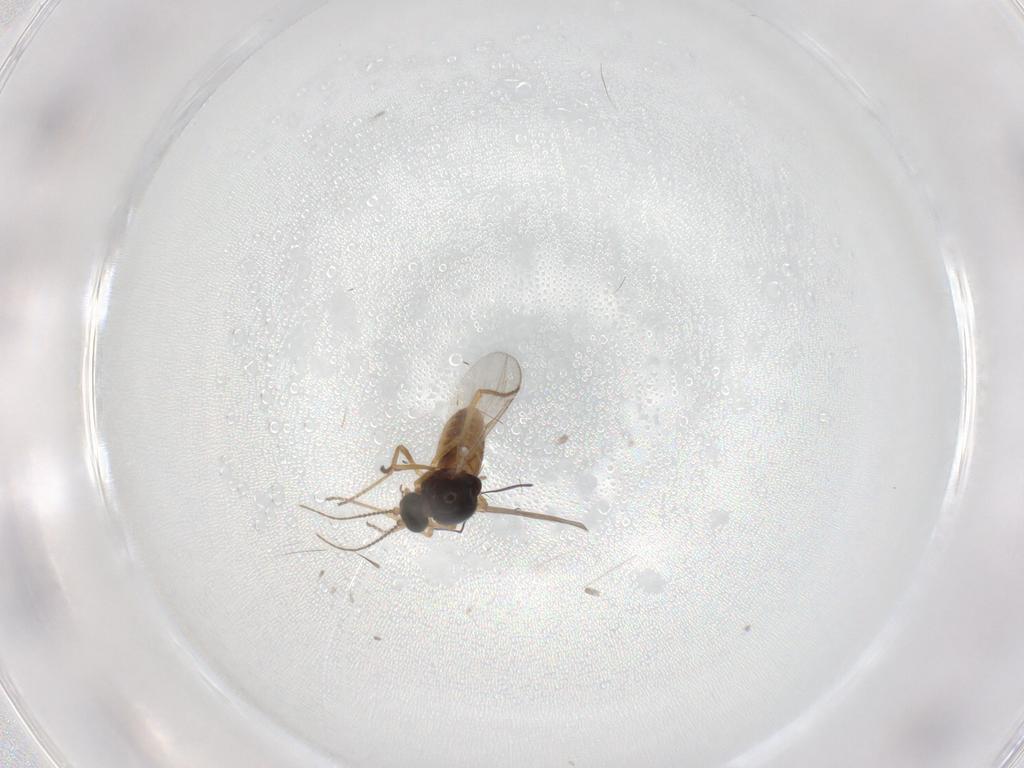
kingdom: Animalia
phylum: Arthropoda
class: Insecta
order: Diptera
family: Ceratopogonidae
